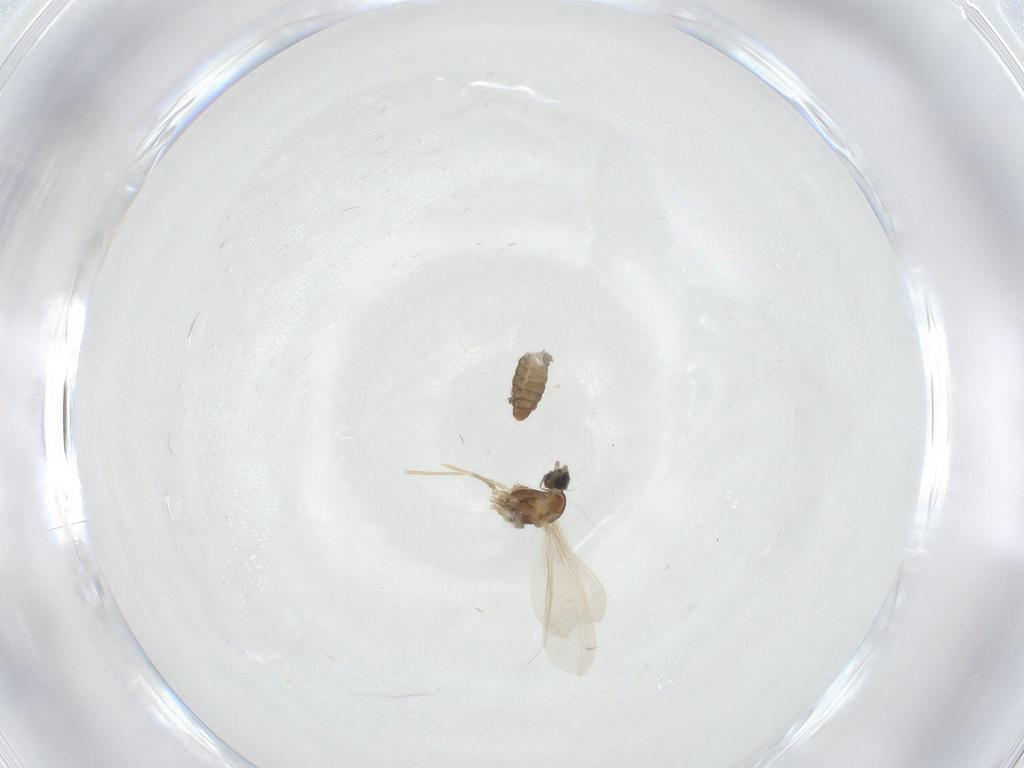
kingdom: Animalia
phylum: Arthropoda
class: Insecta
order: Diptera
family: Cecidomyiidae
